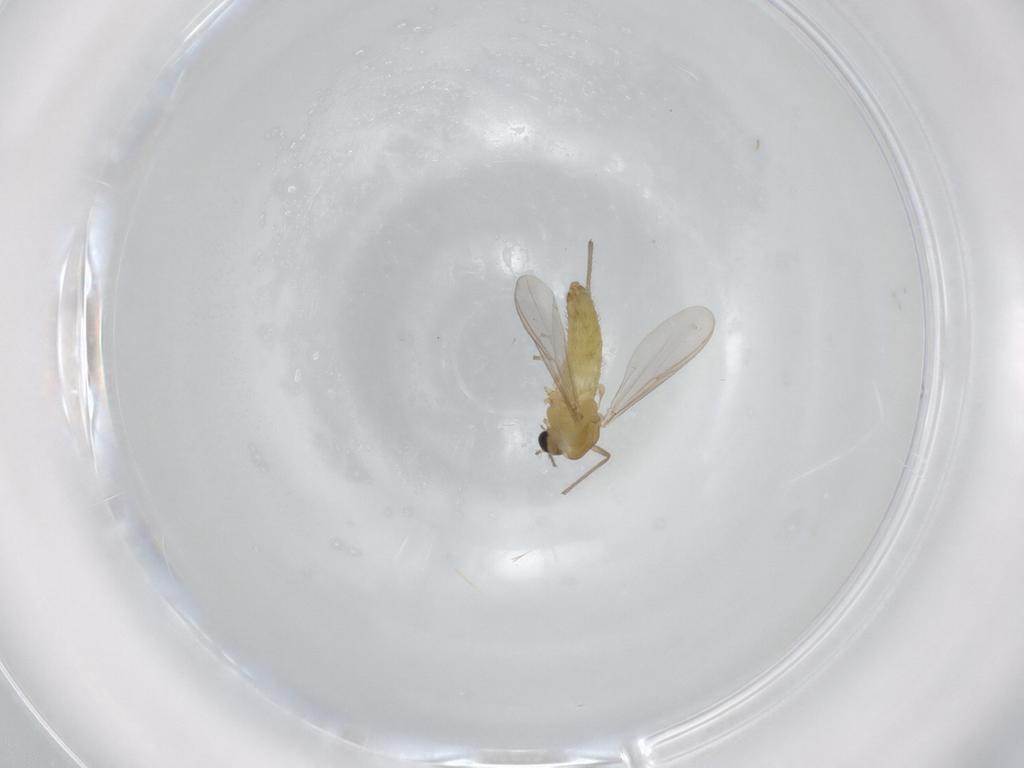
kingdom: Animalia
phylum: Arthropoda
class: Insecta
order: Diptera
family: Chironomidae
